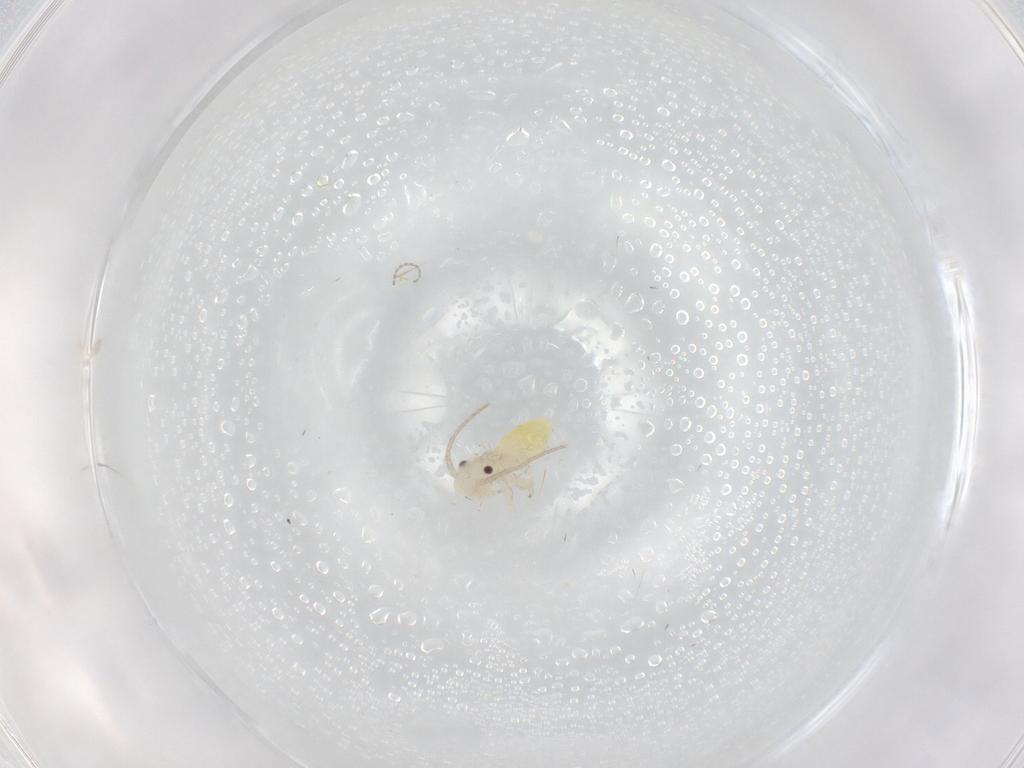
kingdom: Animalia
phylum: Arthropoda
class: Insecta
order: Psocodea
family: Caeciliusidae
